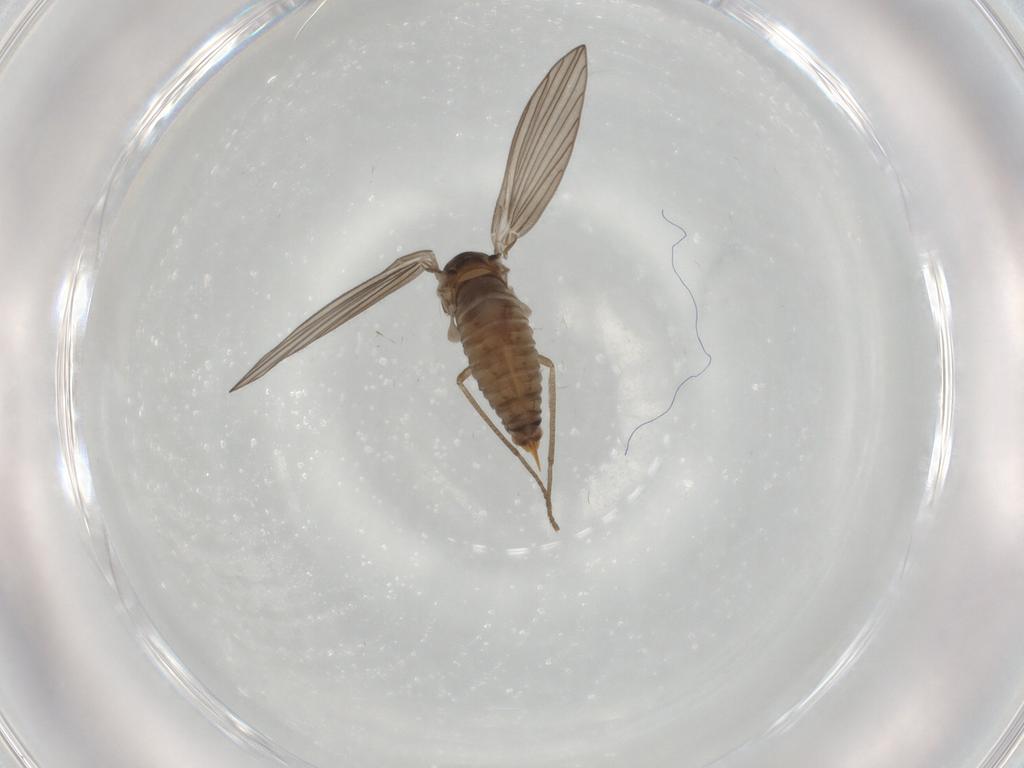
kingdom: Animalia
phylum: Arthropoda
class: Insecta
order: Diptera
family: Psychodidae
